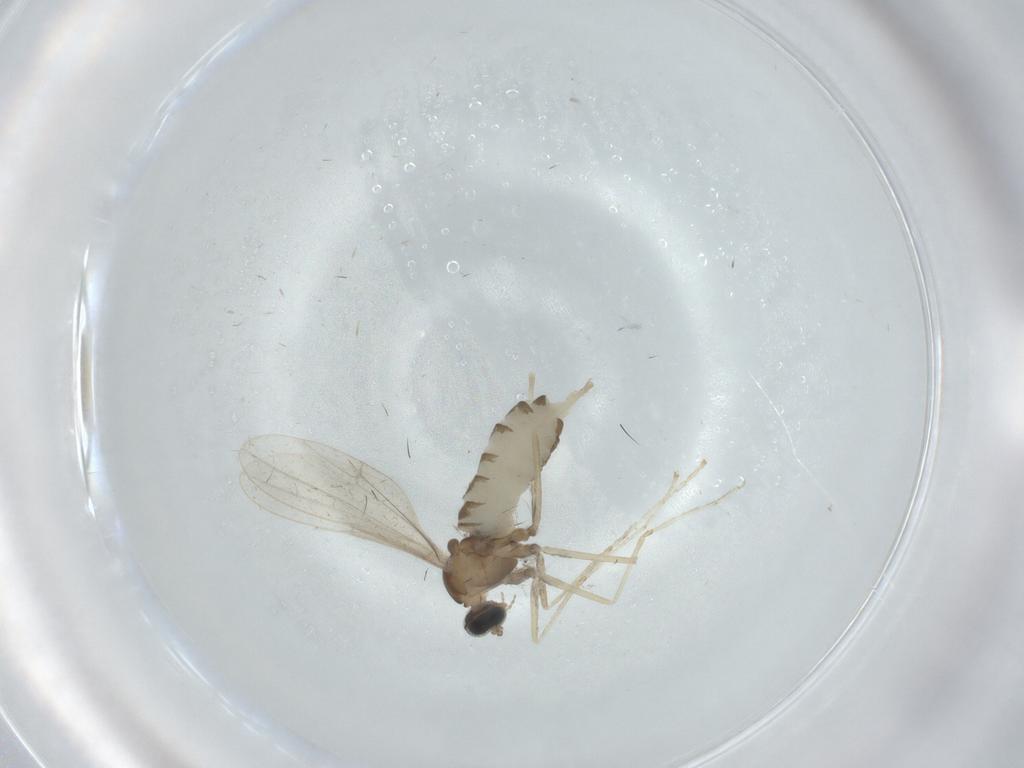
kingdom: Animalia
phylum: Arthropoda
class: Insecta
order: Diptera
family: Cecidomyiidae
